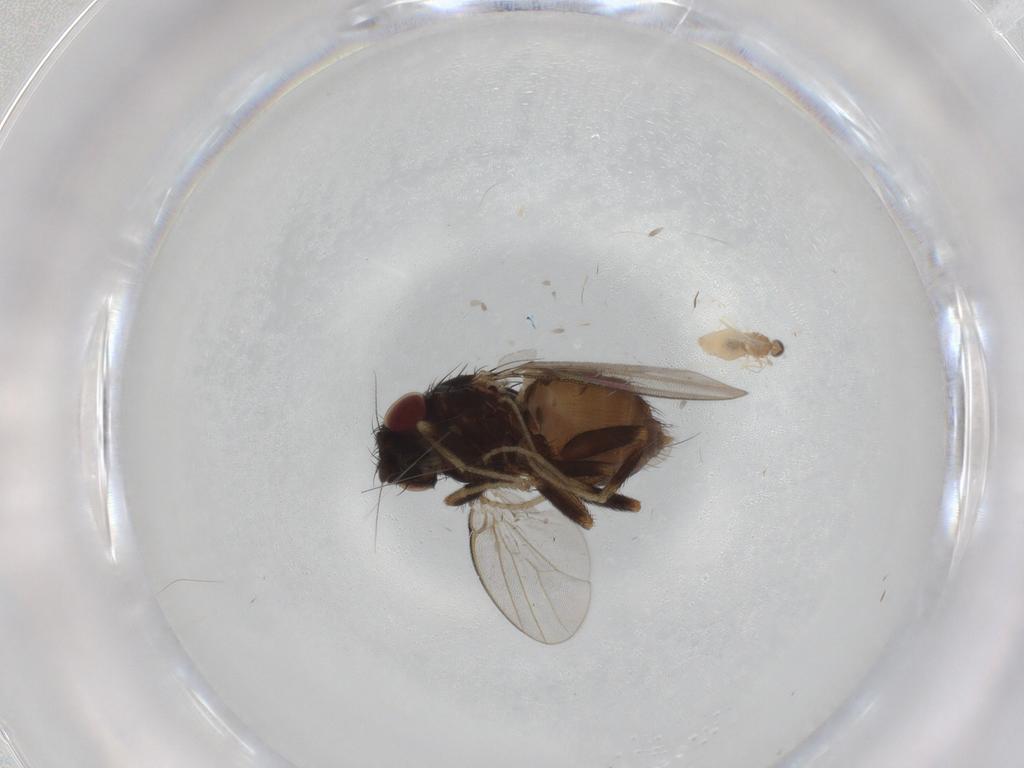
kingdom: Animalia
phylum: Arthropoda
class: Insecta
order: Diptera
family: Milichiidae
